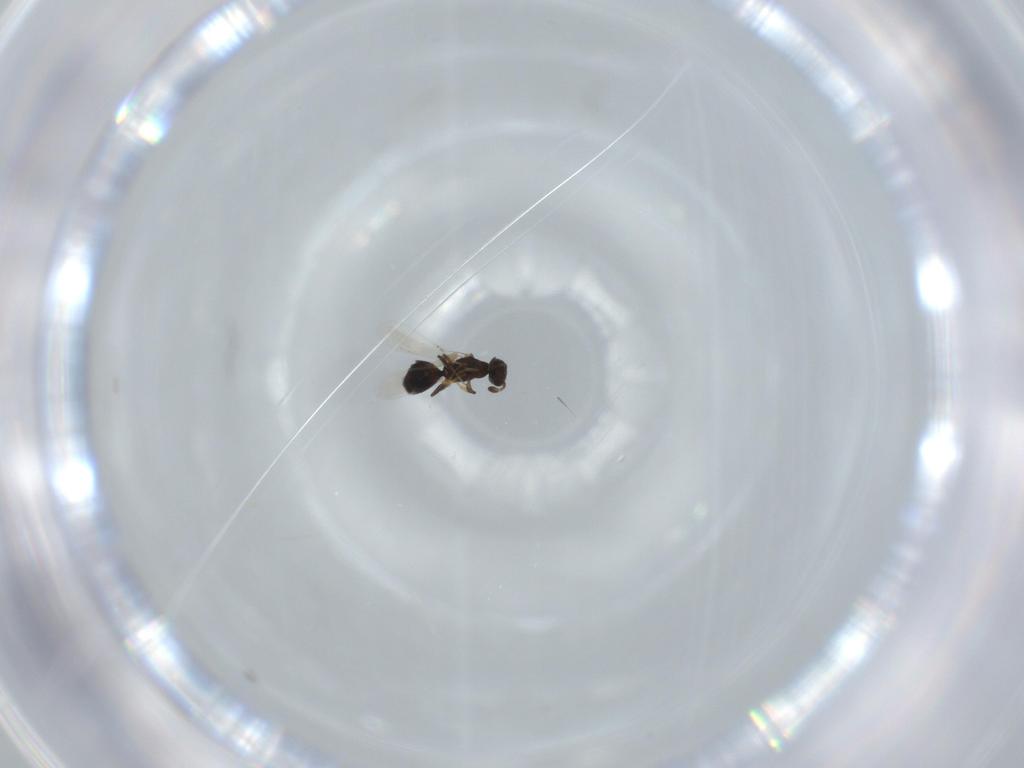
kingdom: Animalia
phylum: Arthropoda
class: Insecta
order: Hymenoptera
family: Bethylidae
